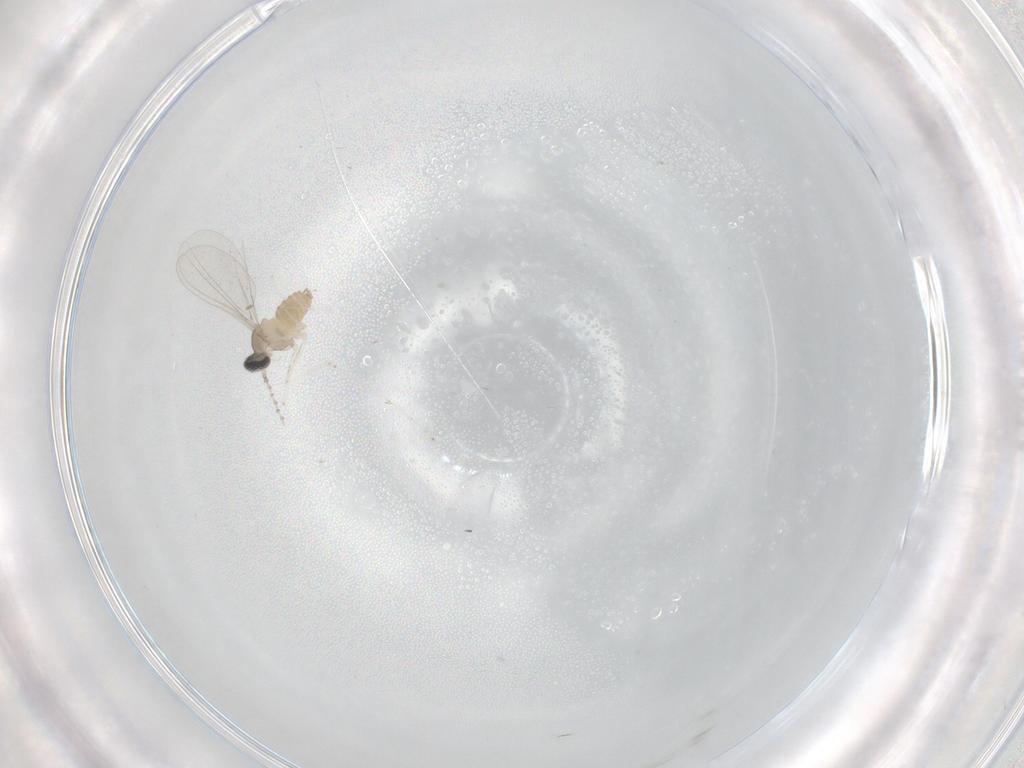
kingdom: Animalia
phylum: Arthropoda
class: Insecta
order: Diptera
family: Cecidomyiidae
